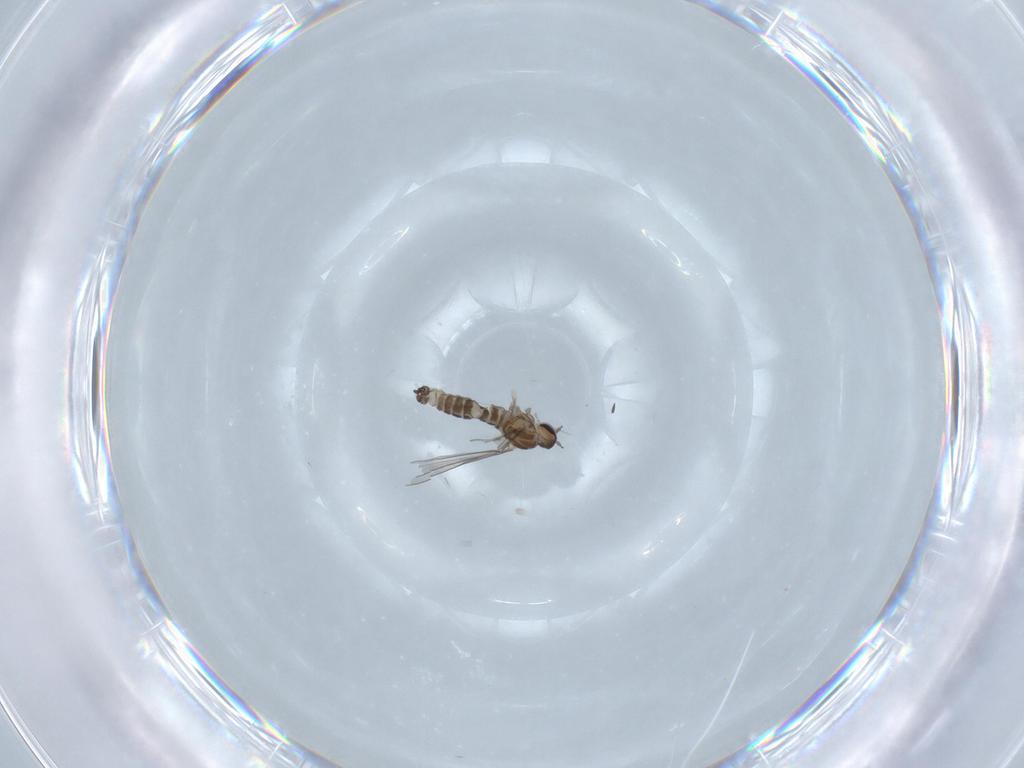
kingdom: Animalia
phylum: Arthropoda
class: Insecta
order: Diptera
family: Cecidomyiidae
